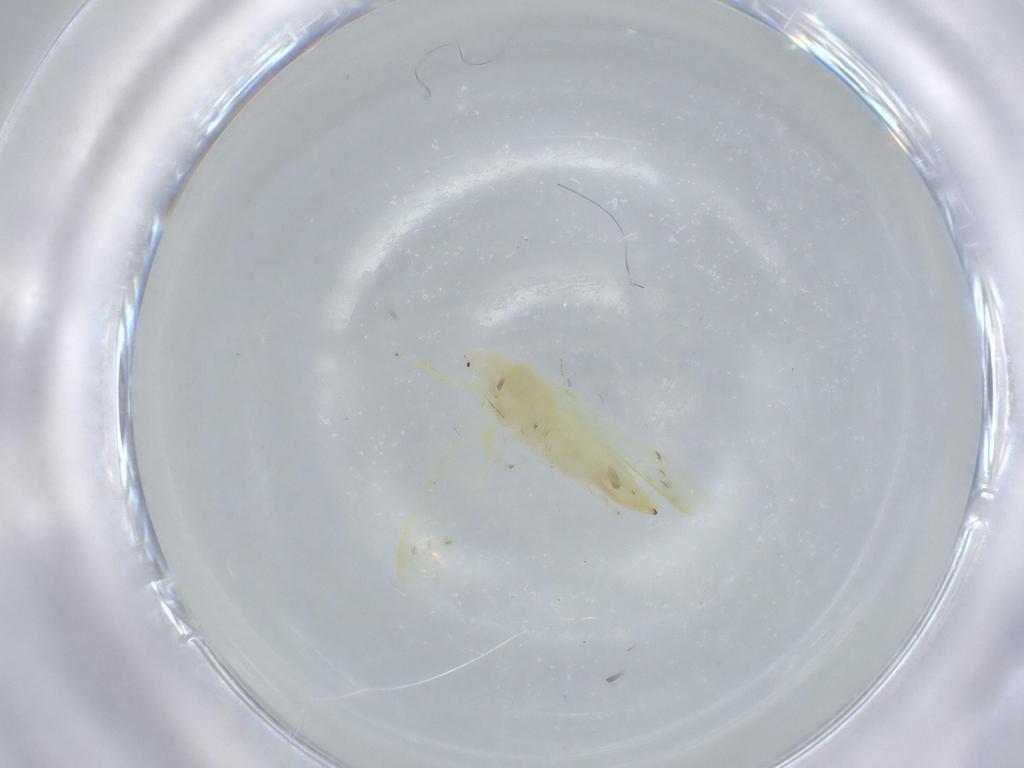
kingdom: Animalia
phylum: Arthropoda
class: Insecta
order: Hemiptera
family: Cicadellidae
